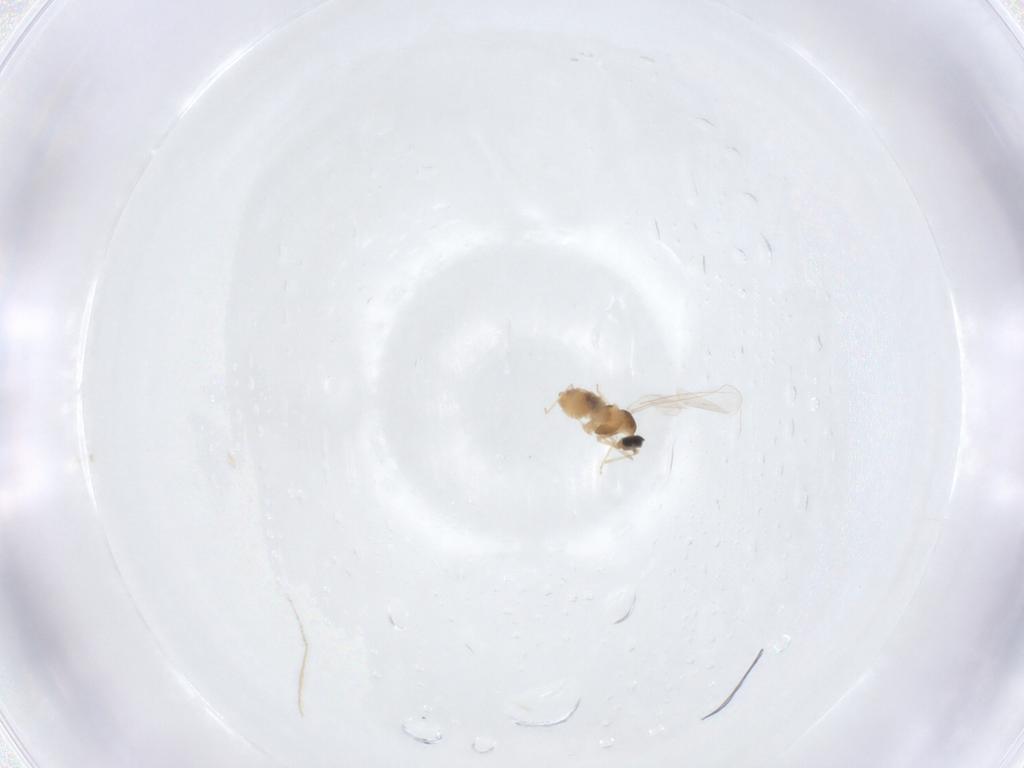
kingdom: Animalia
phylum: Arthropoda
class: Insecta
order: Diptera
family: Cecidomyiidae
